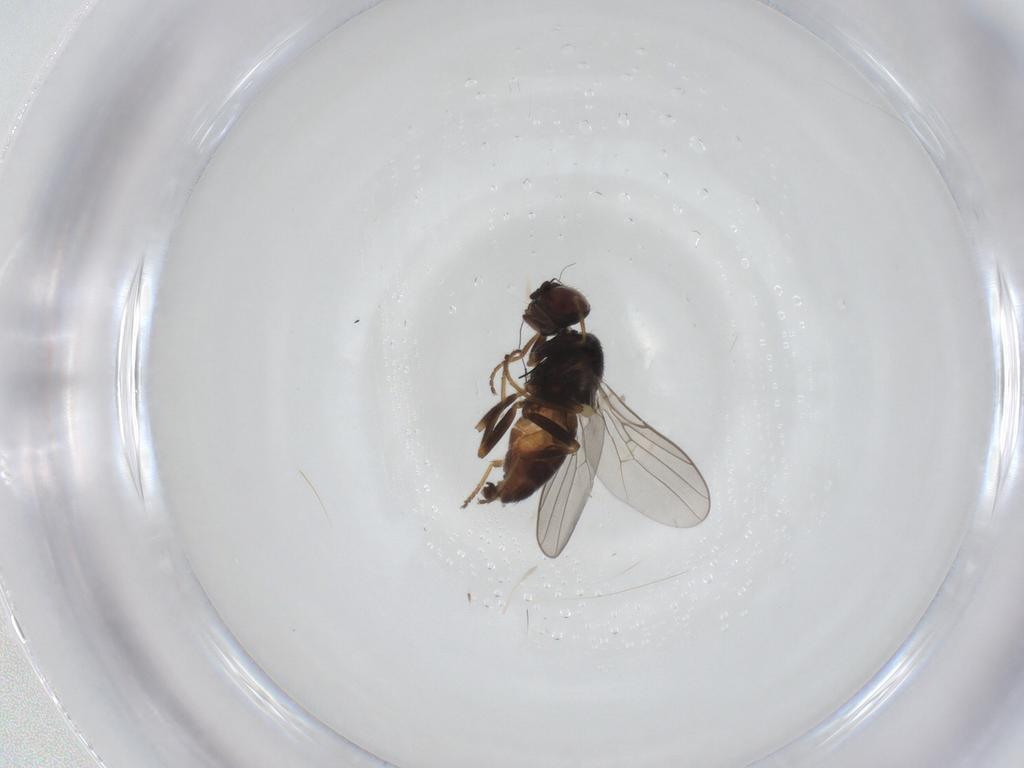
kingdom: Animalia
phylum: Arthropoda
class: Insecta
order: Diptera
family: Chloropidae
